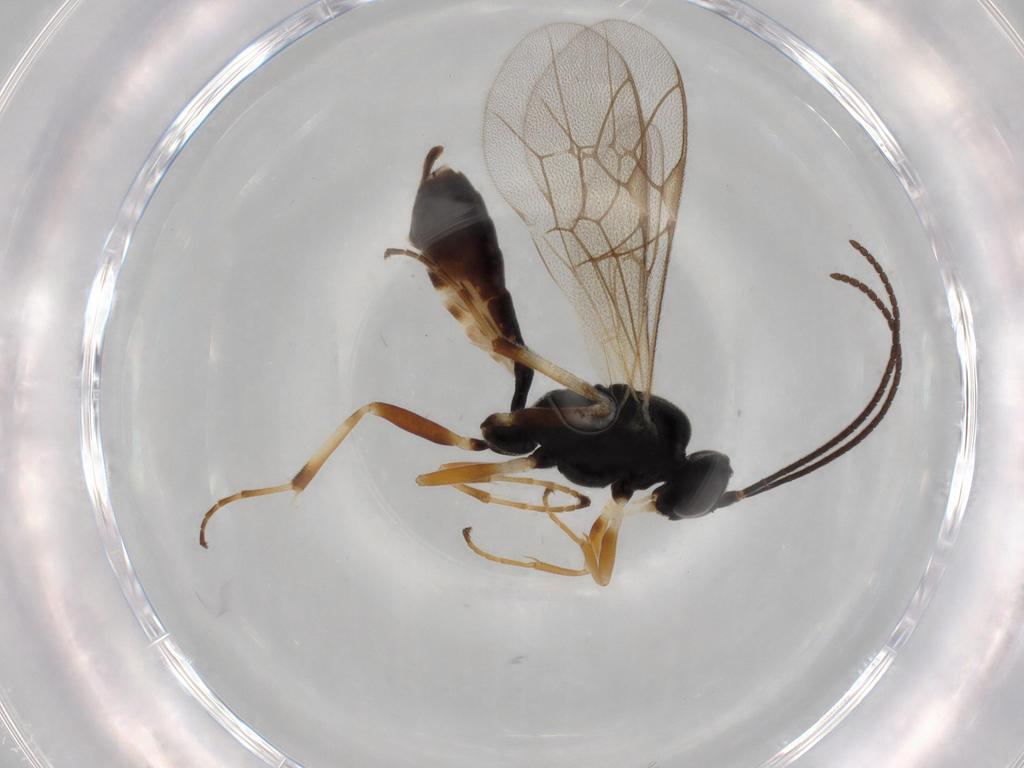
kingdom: Animalia
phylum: Arthropoda
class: Insecta
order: Hymenoptera
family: Ichneumonidae
